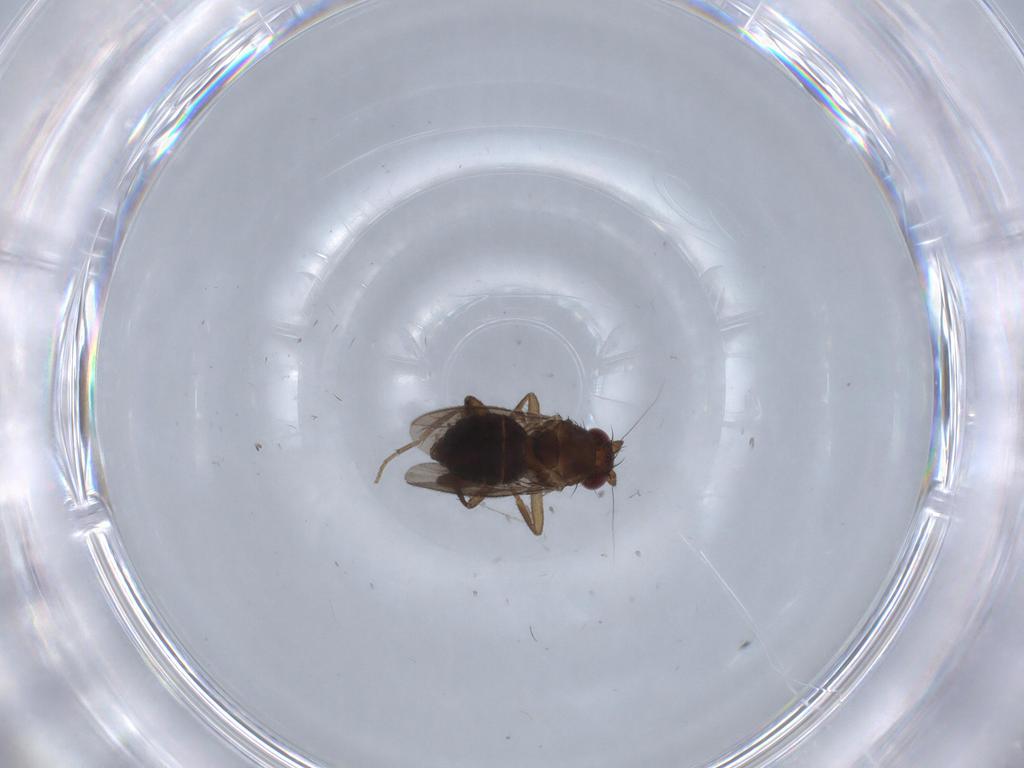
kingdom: Animalia
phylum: Arthropoda
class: Insecta
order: Diptera
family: Sphaeroceridae
